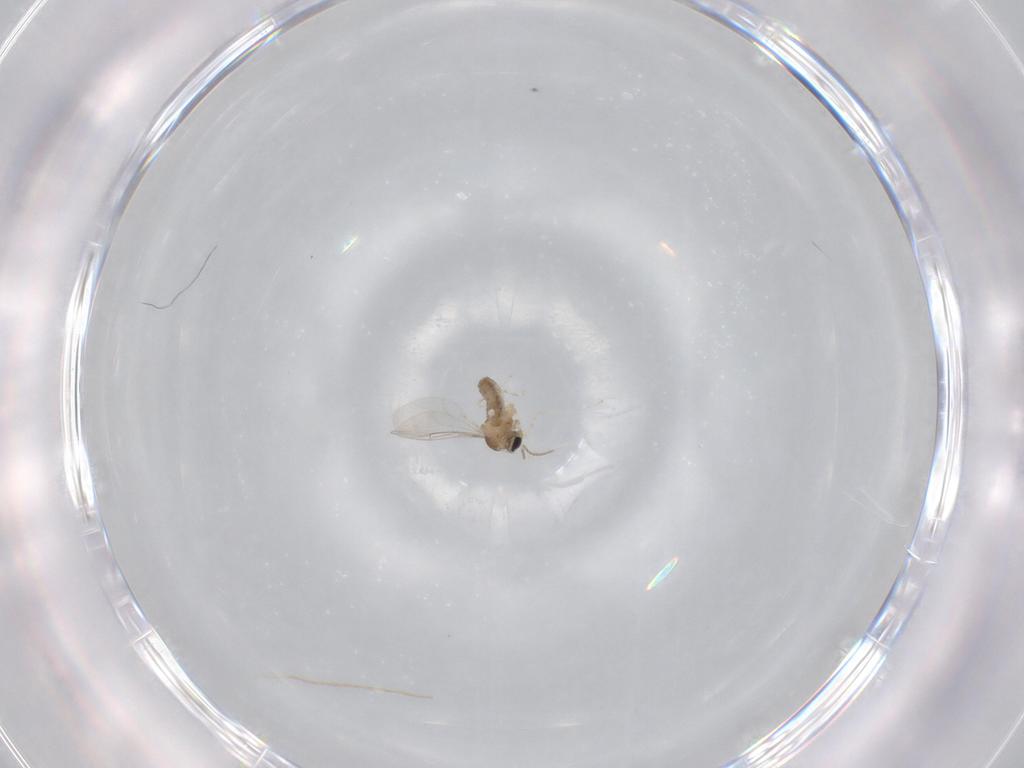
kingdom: Animalia
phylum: Arthropoda
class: Insecta
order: Diptera
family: Cecidomyiidae
